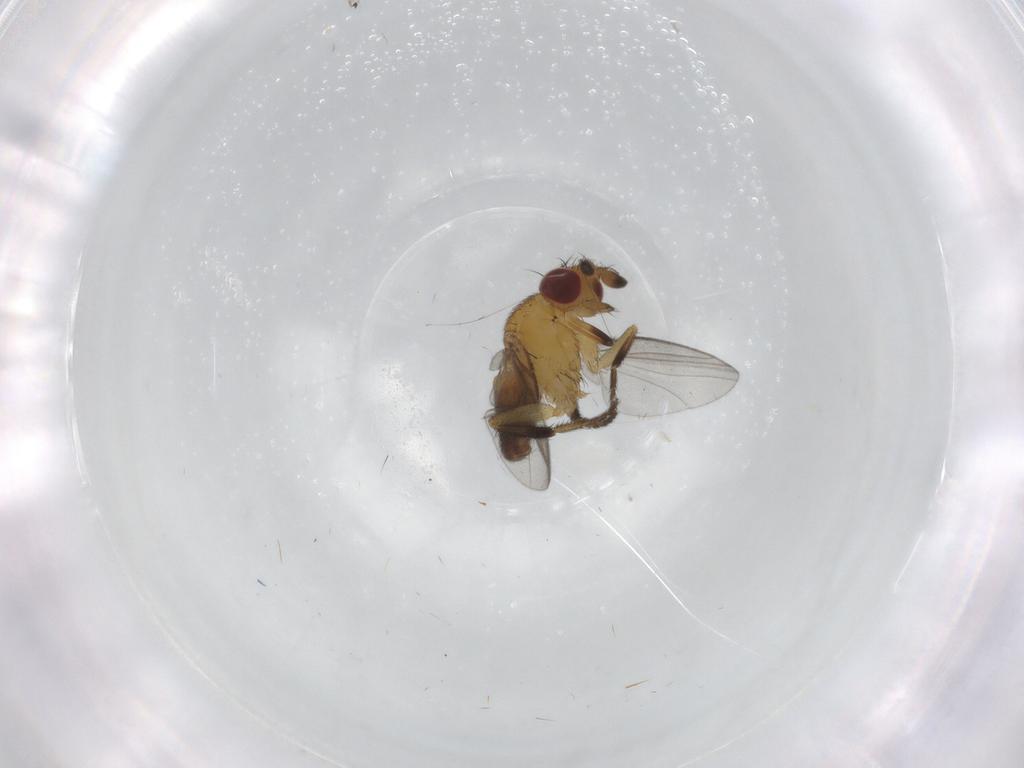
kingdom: Animalia
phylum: Arthropoda
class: Insecta
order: Diptera
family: Milichiidae
